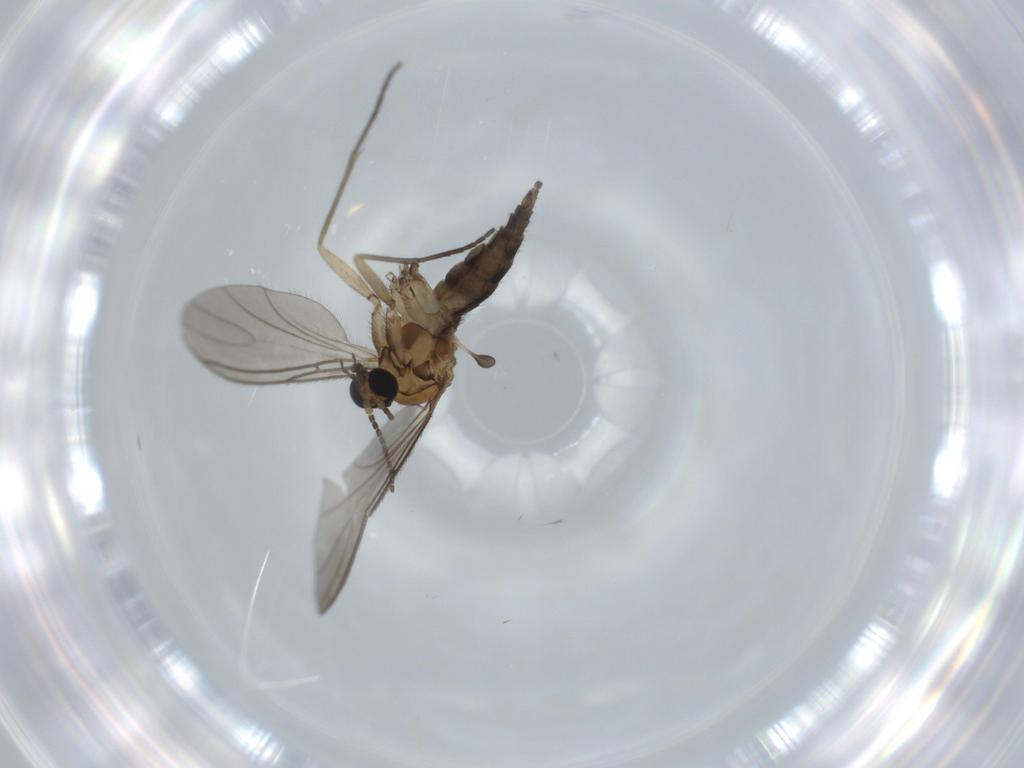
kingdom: Animalia
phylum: Arthropoda
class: Insecta
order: Diptera
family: Sciaridae
